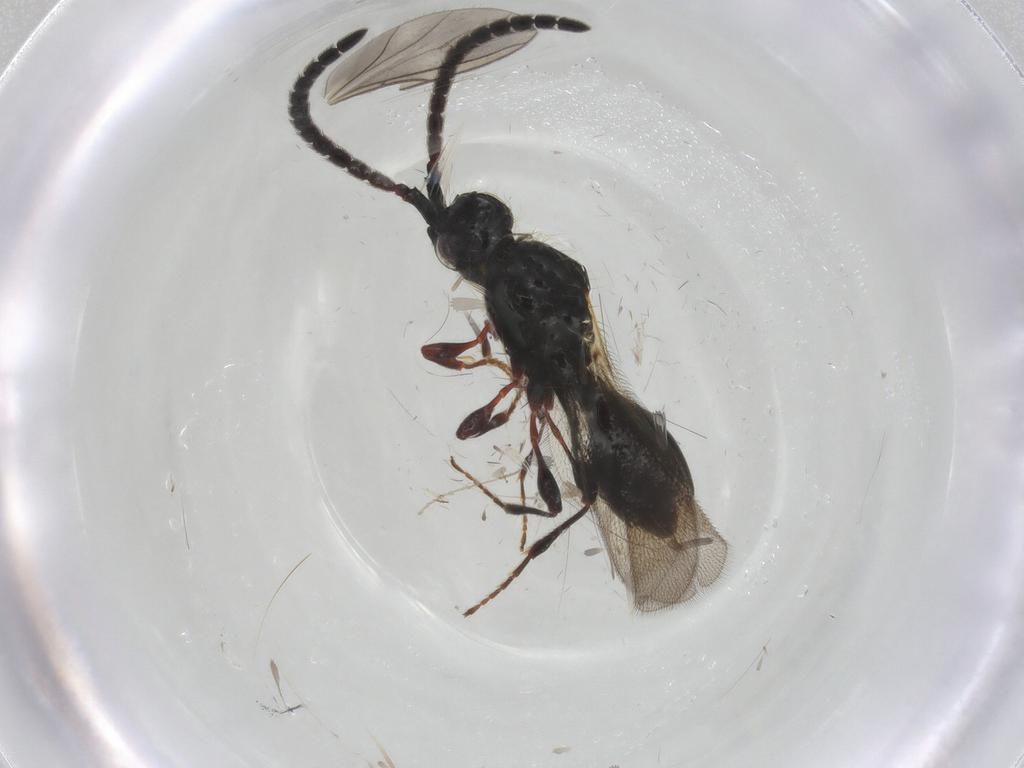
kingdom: Animalia
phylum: Arthropoda
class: Insecta
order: Hymenoptera
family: Diapriidae
